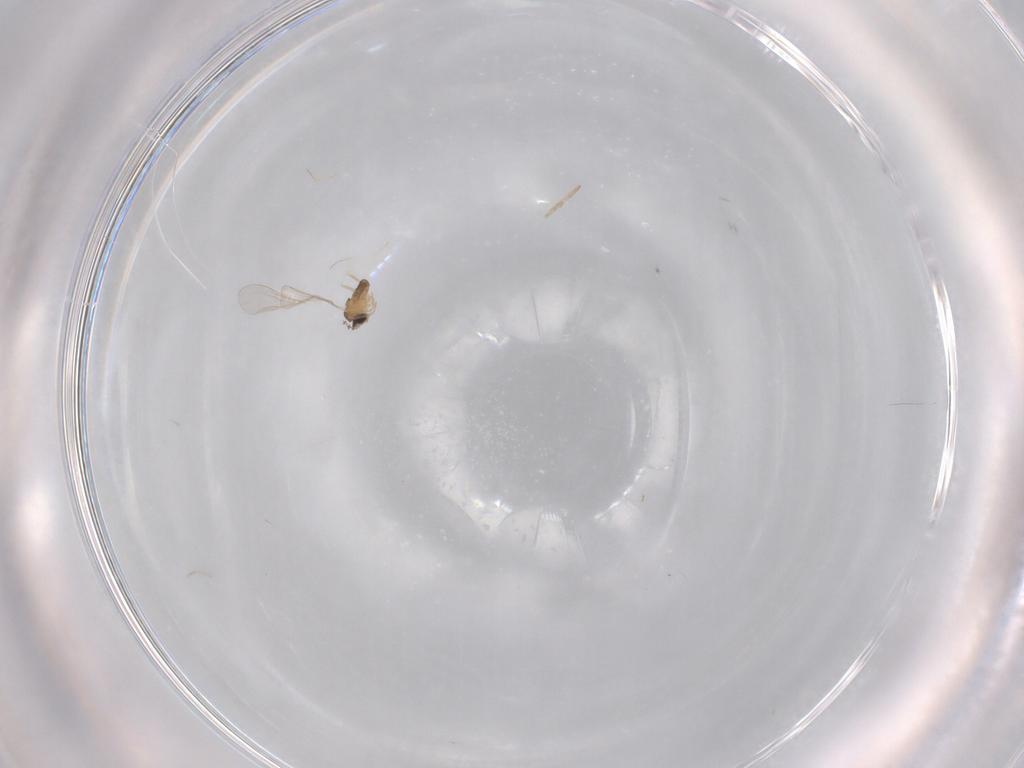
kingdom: Animalia
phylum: Arthropoda
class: Insecta
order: Diptera
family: Cecidomyiidae
